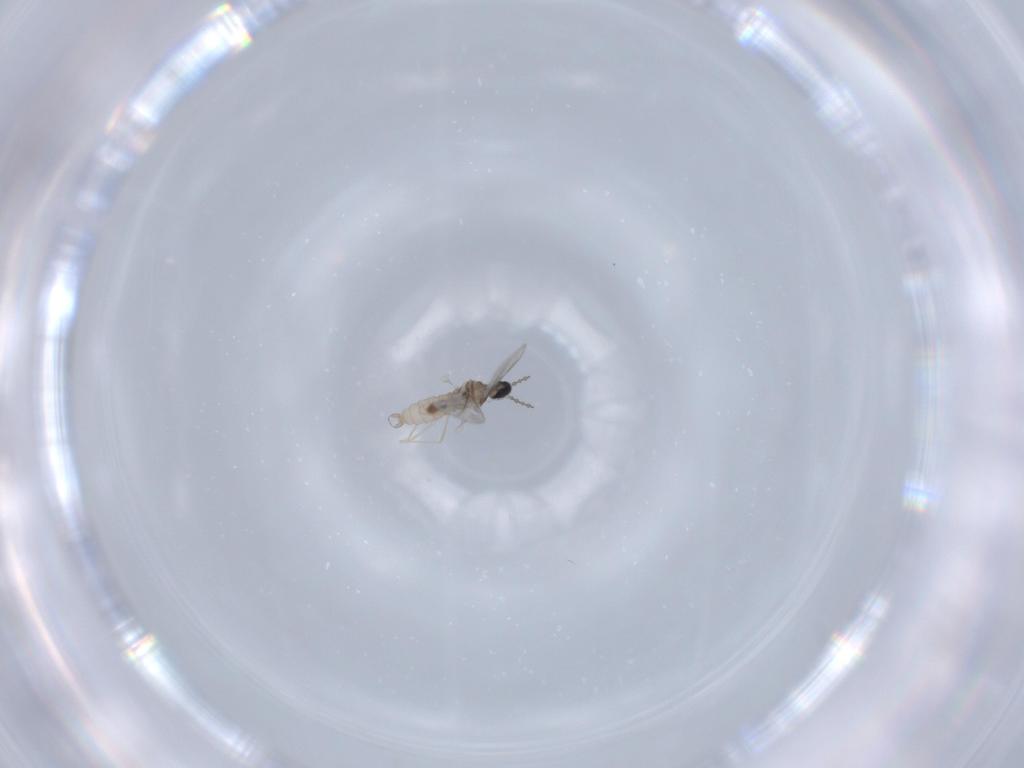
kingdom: Animalia
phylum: Arthropoda
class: Insecta
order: Diptera
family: Cecidomyiidae
